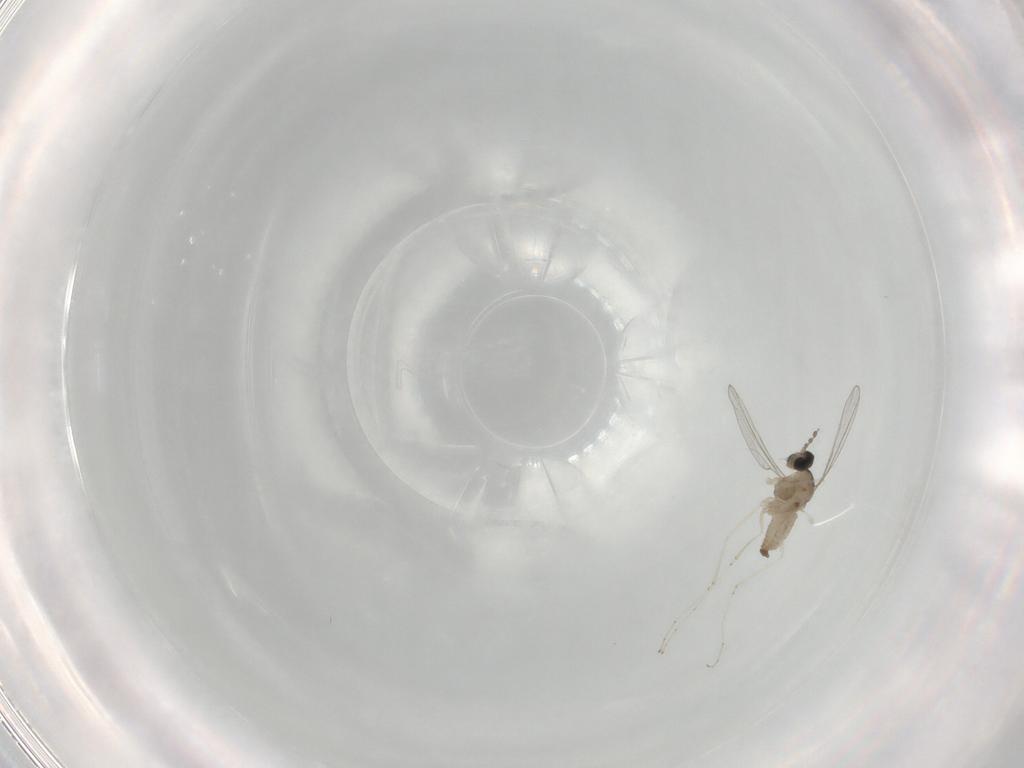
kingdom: Animalia
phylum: Arthropoda
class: Insecta
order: Diptera
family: Cecidomyiidae
